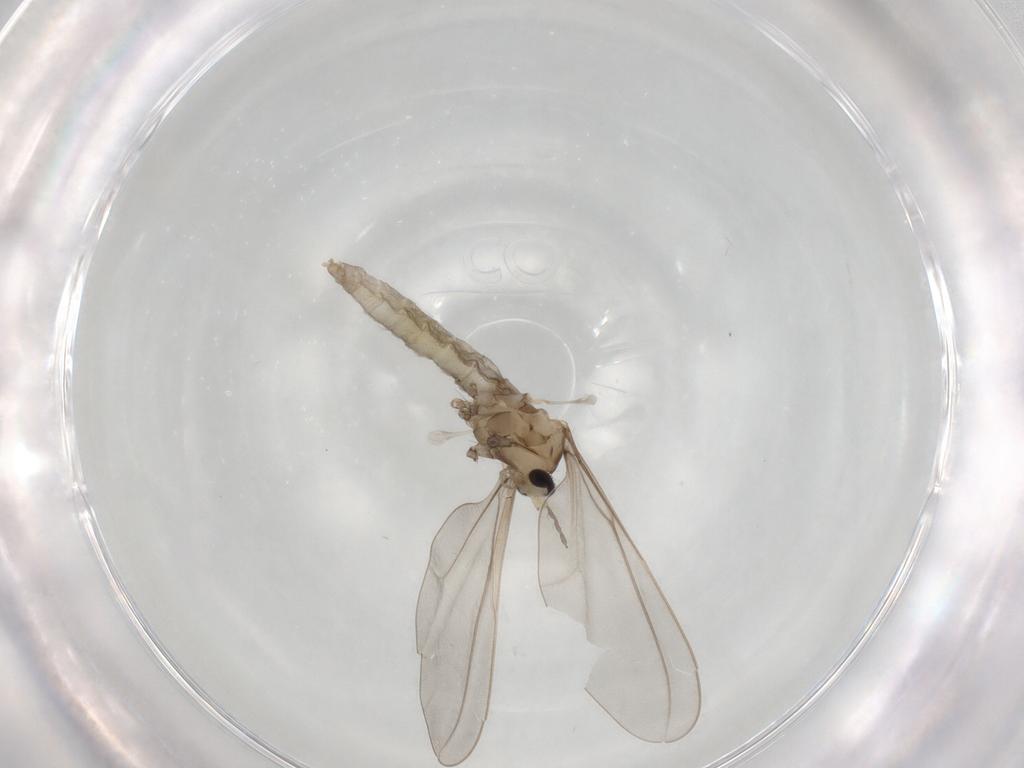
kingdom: Animalia
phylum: Arthropoda
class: Insecta
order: Diptera
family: Cecidomyiidae
